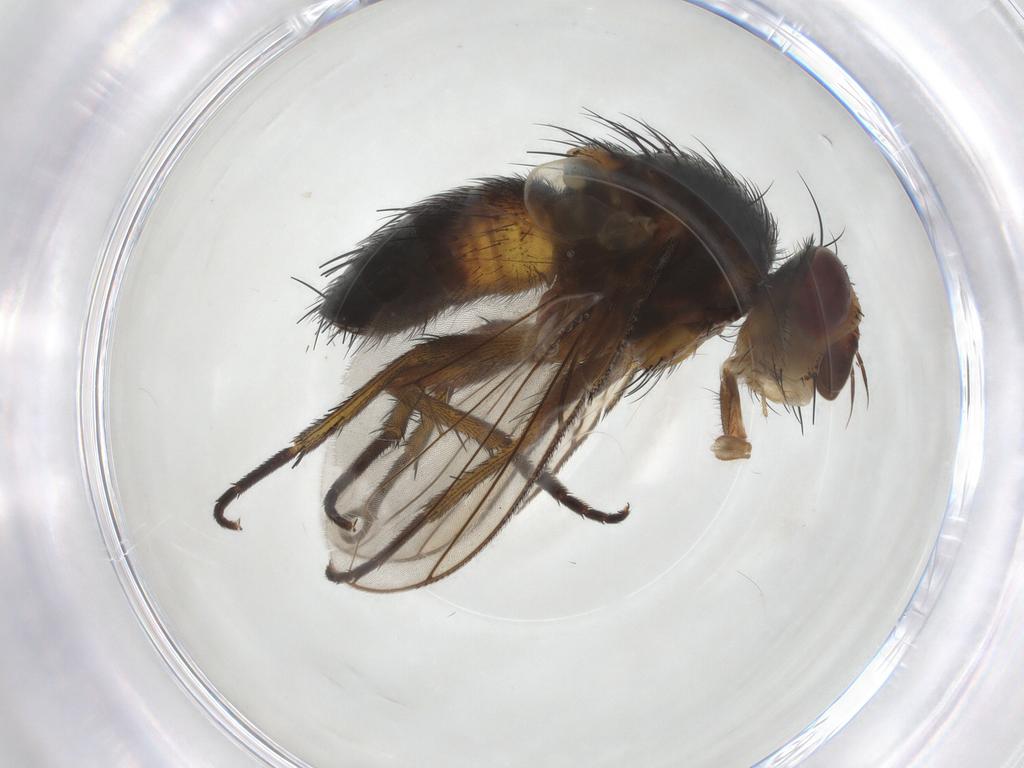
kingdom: Animalia
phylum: Arthropoda
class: Insecta
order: Diptera
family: Tachinidae
